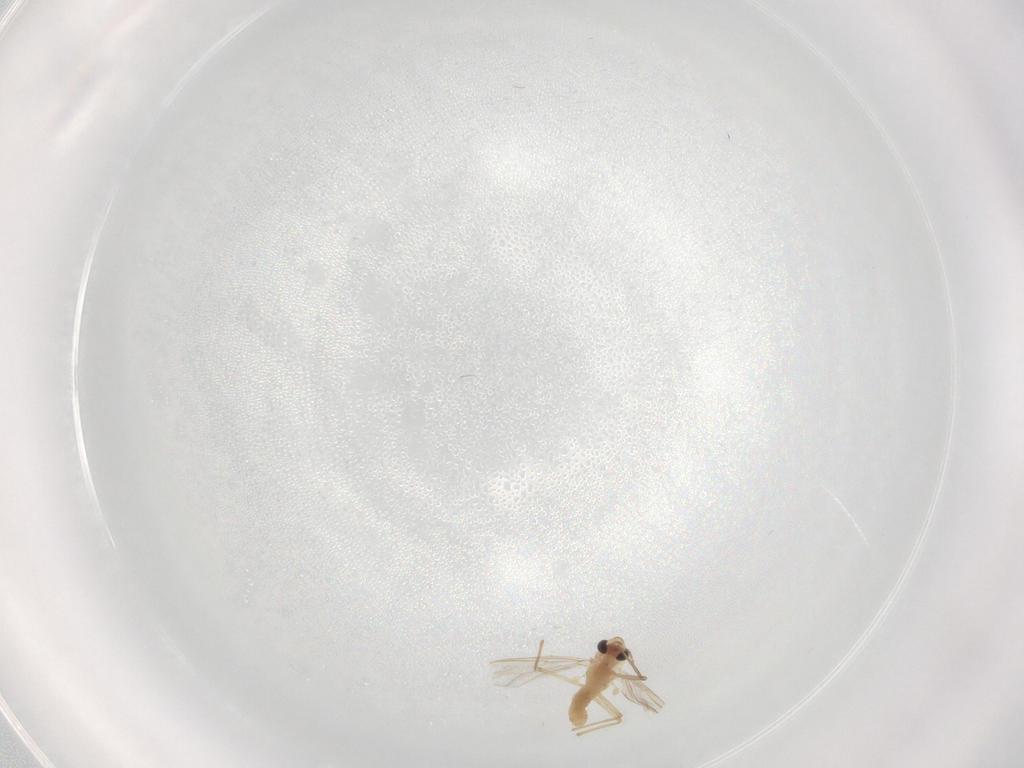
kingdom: Animalia
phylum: Arthropoda
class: Insecta
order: Diptera
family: Chironomidae
